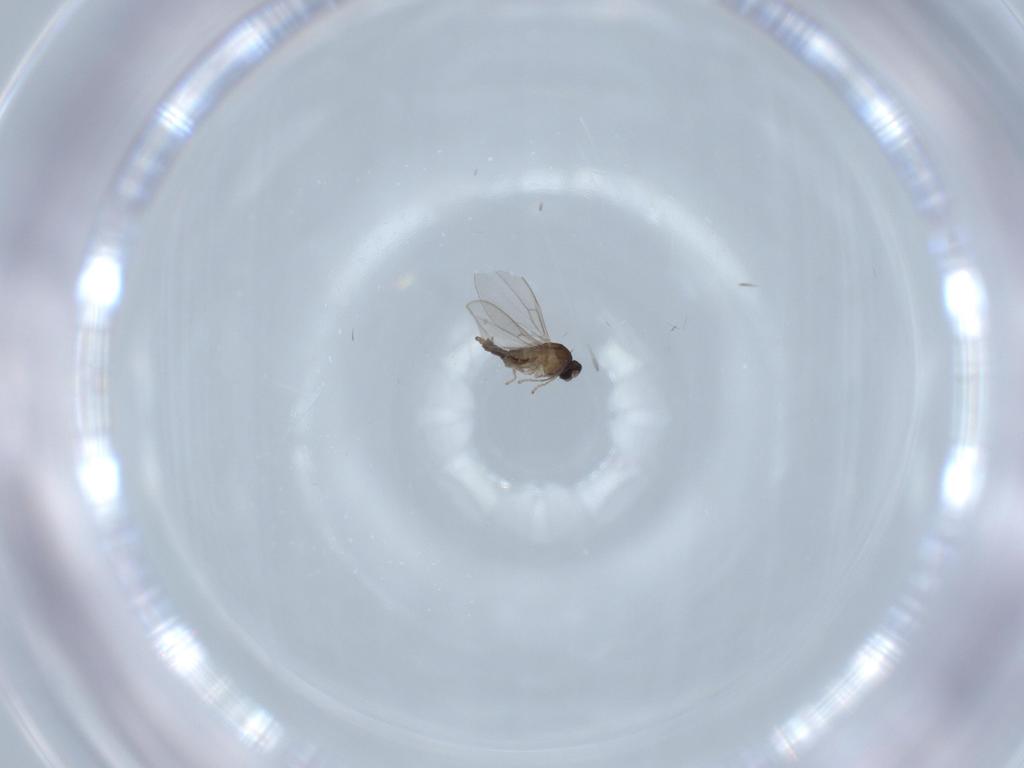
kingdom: Animalia
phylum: Arthropoda
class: Insecta
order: Diptera
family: Cecidomyiidae
